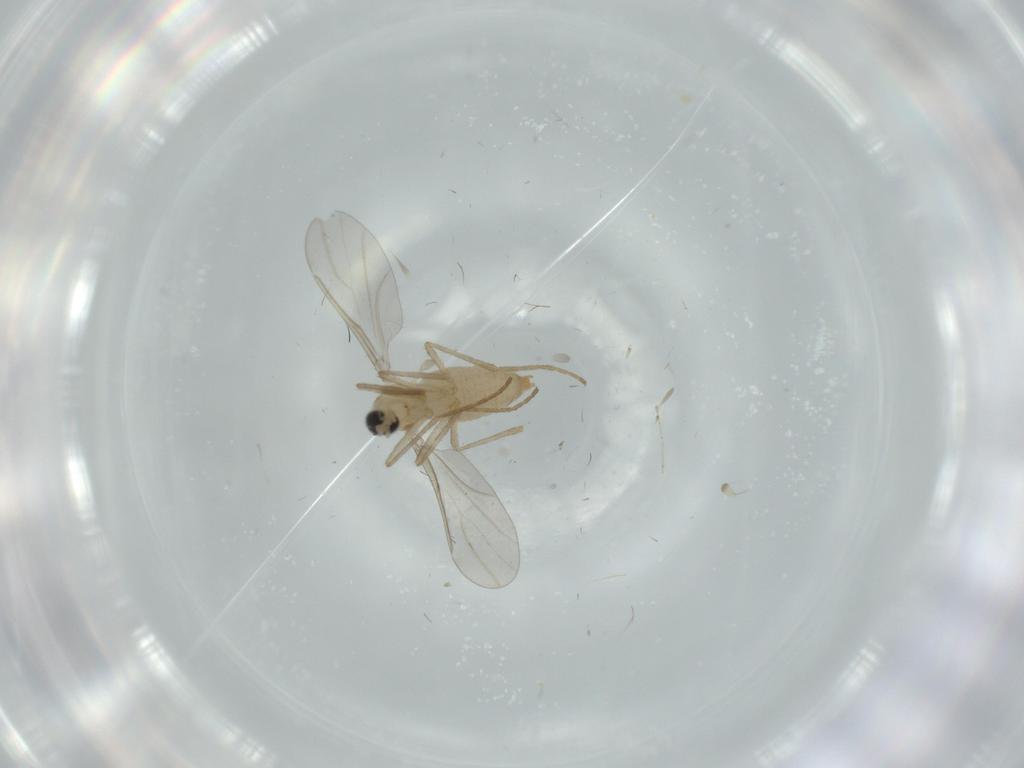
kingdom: Animalia
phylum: Arthropoda
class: Insecta
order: Diptera
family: Cecidomyiidae
